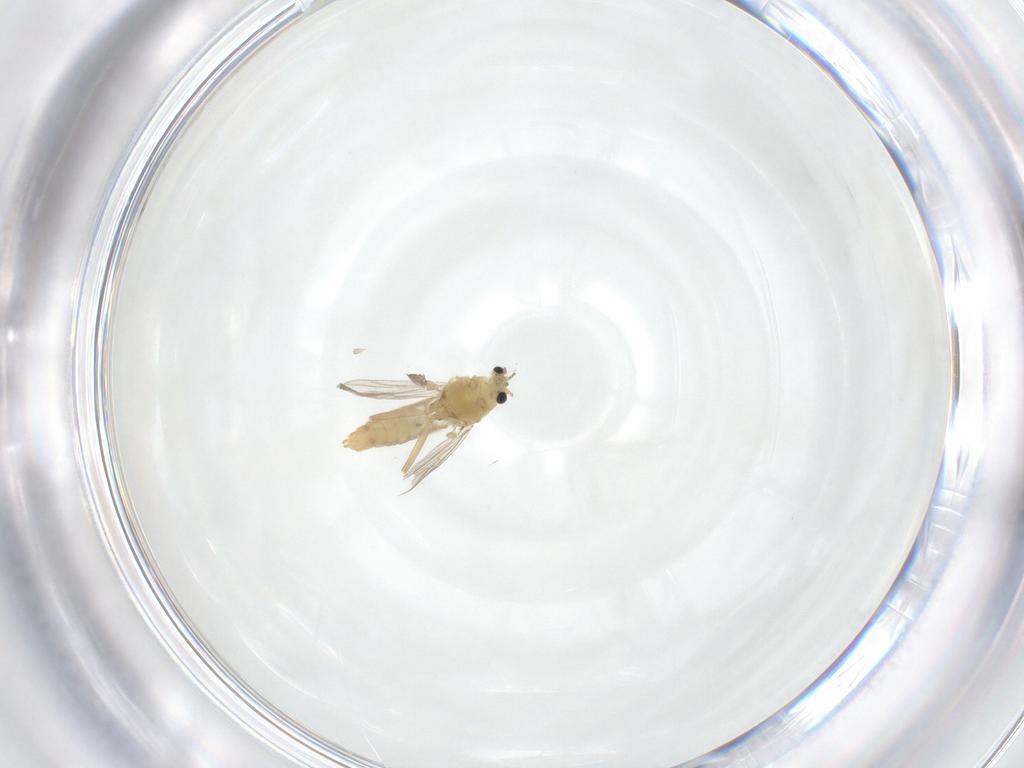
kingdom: Animalia
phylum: Arthropoda
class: Insecta
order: Diptera
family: Chironomidae
